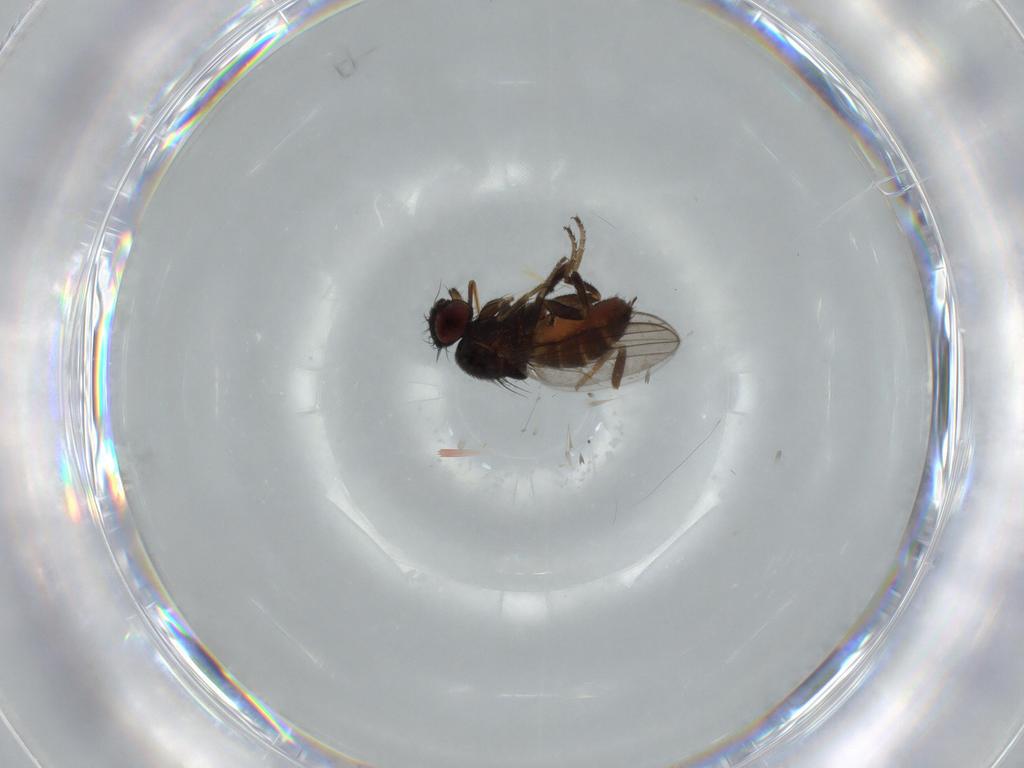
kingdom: Animalia
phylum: Arthropoda
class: Insecta
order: Diptera
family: Milichiidae
